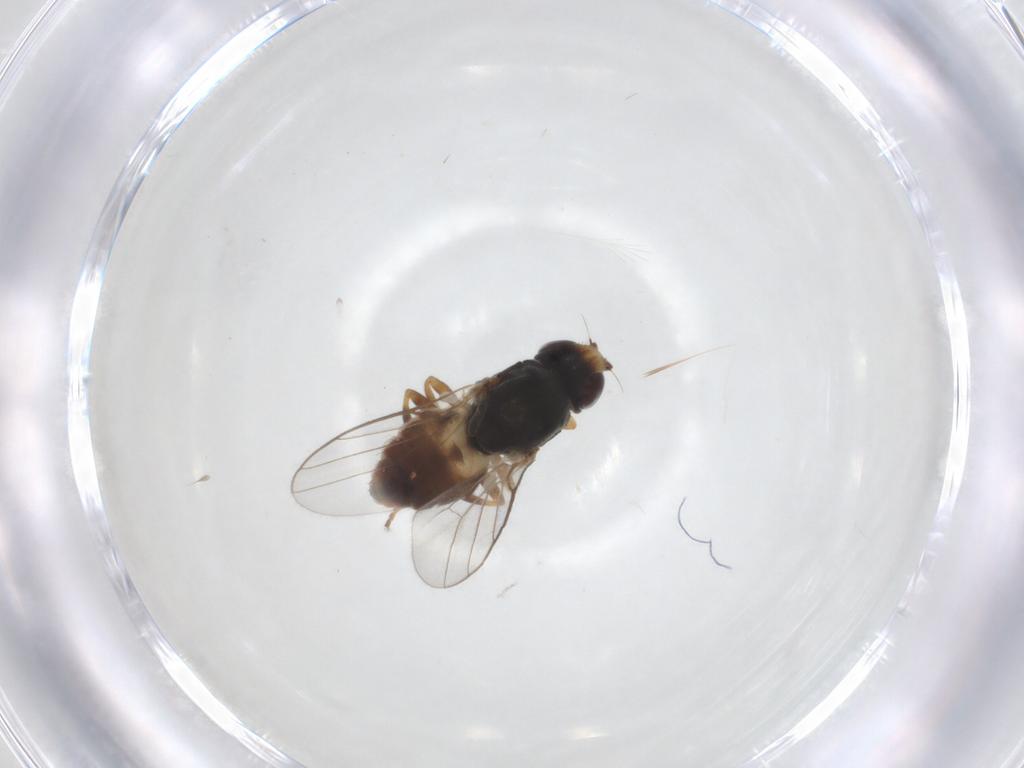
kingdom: Animalia
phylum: Arthropoda
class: Insecta
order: Diptera
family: Chloropidae
